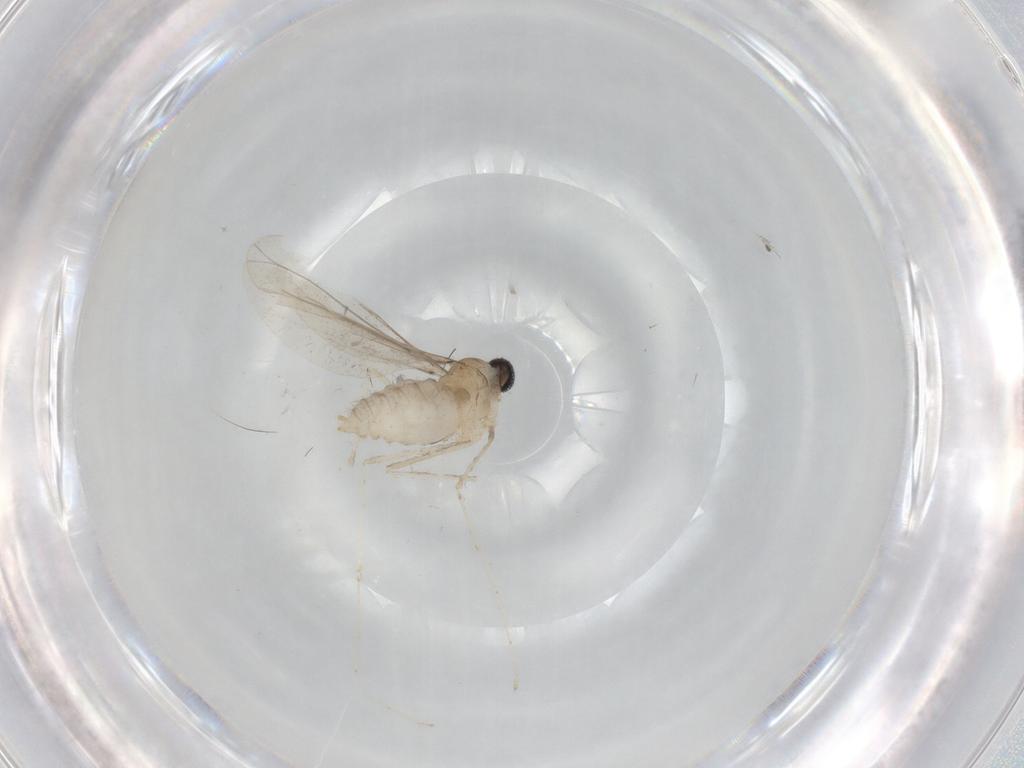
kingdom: Animalia
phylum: Arthropoda
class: Insecta
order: Diptera
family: Cecidomyiidae
